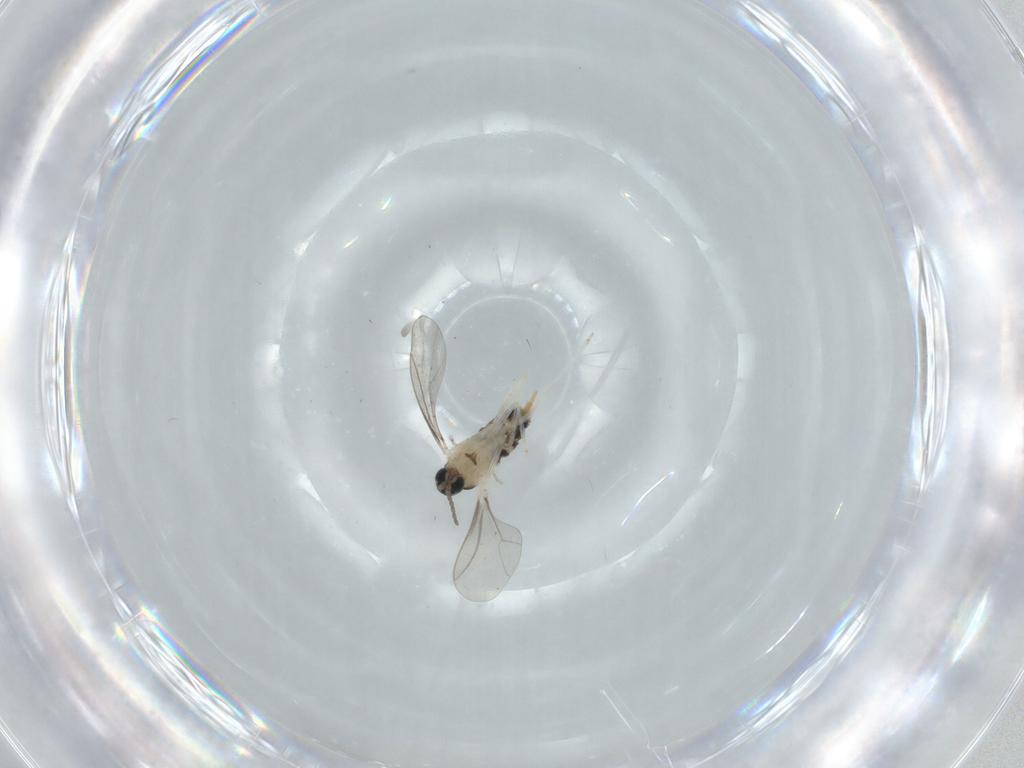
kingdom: Animalia
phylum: Arthropoda
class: Insecta
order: Diptera
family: Cecidomyiidae
